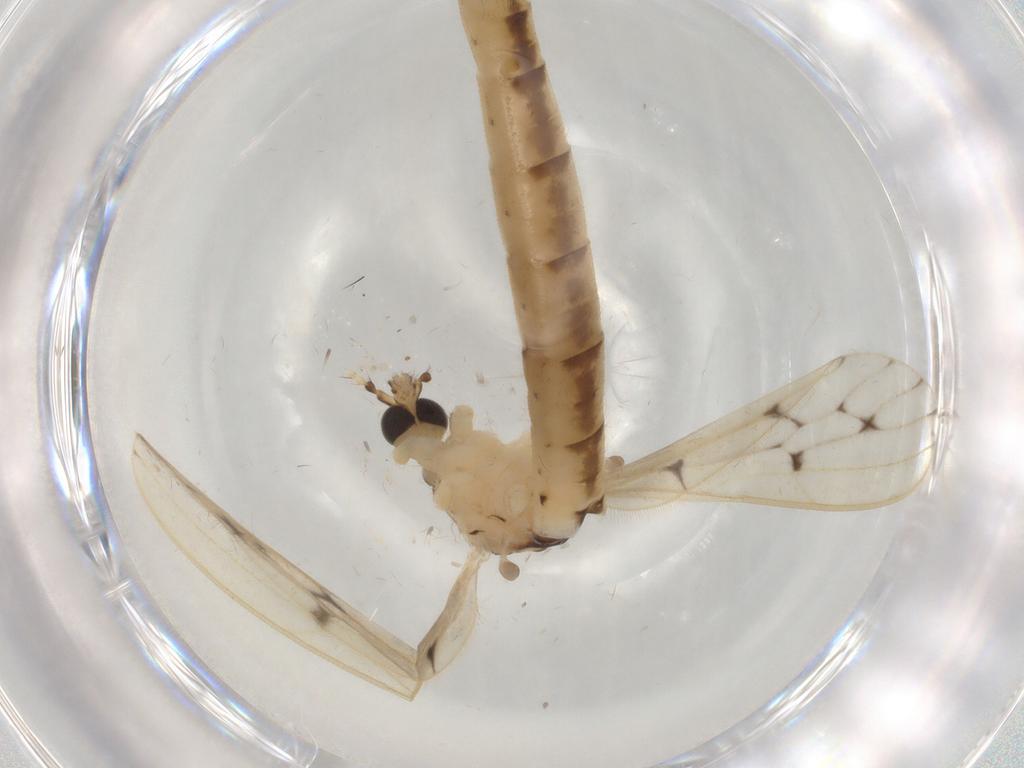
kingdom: Animalia
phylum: Arthropoda
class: Insecta
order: Diptera
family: Limoniidae
